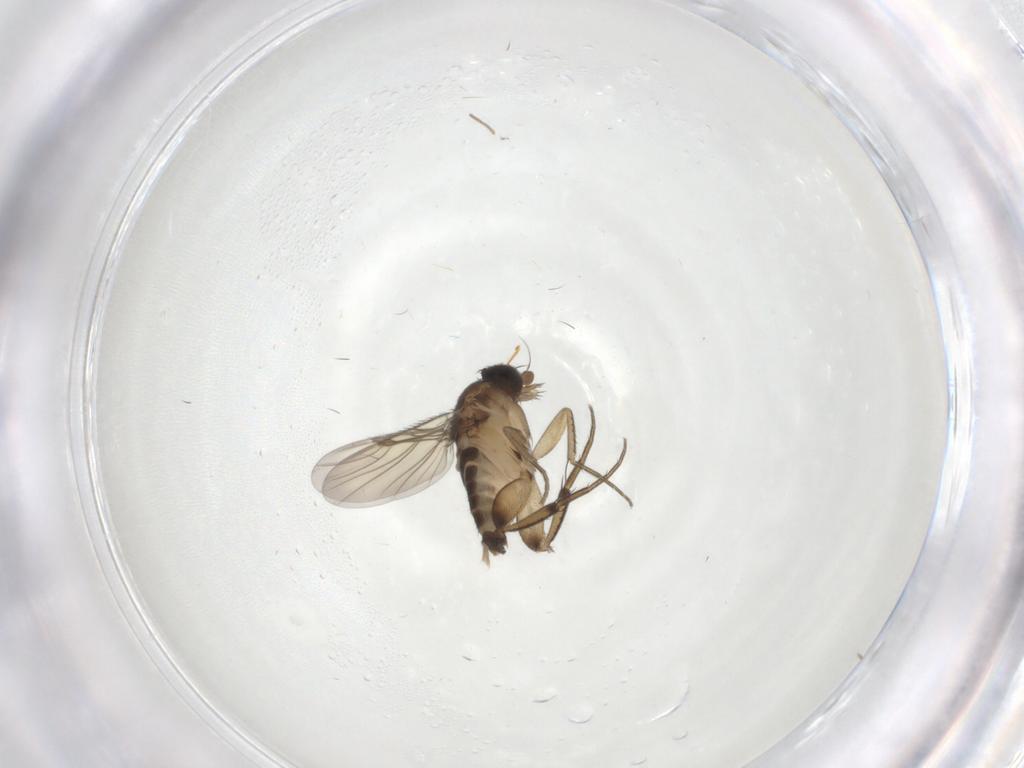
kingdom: Animalia
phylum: Arthropoda
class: Insecta
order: Diptera
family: Phoridae
